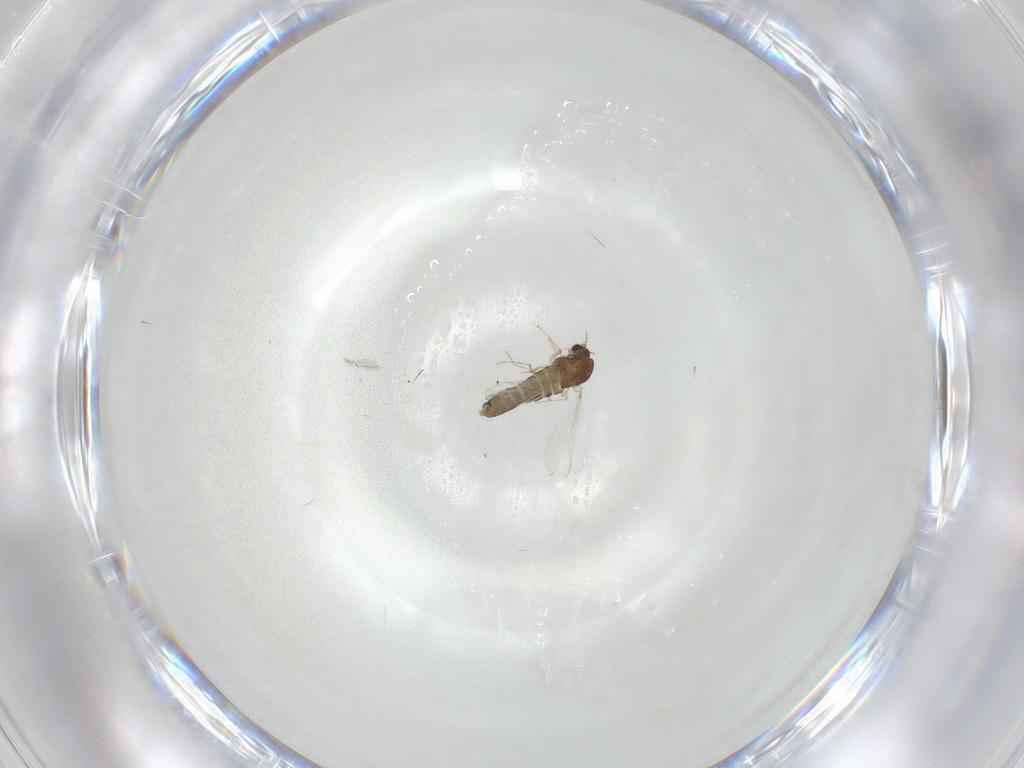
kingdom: Animalia
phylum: Arthropoda
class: Insecta
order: Diptera
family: Chironomidae
